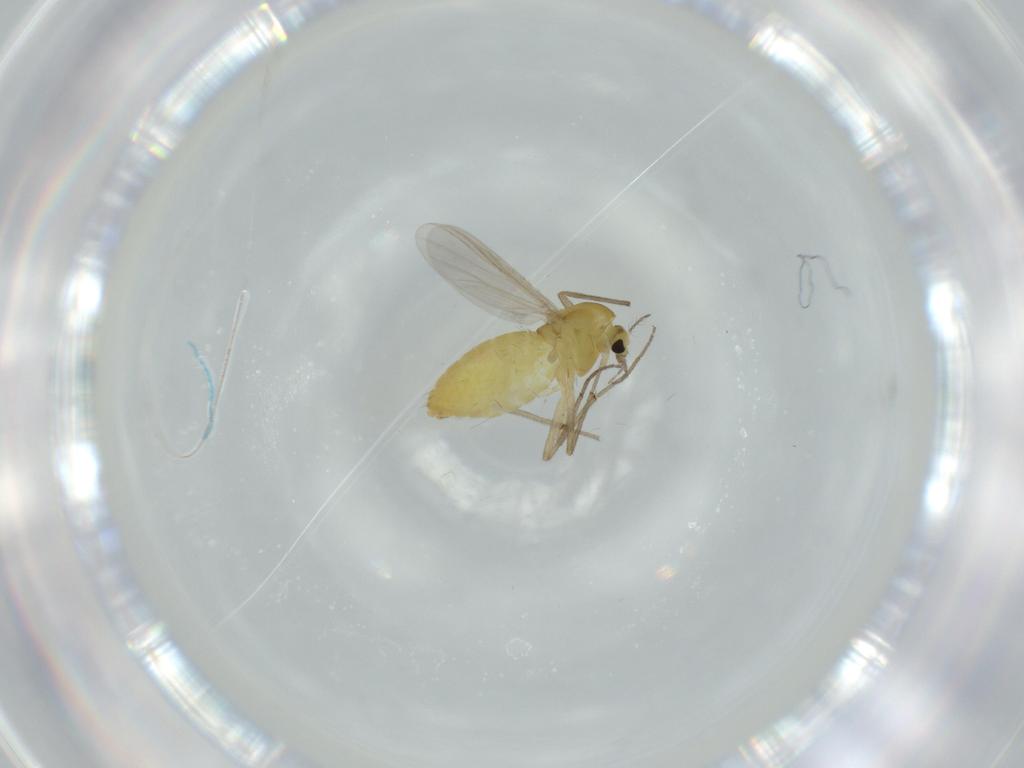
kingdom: Animalia
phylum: Arthropoda
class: Insecta
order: Diptera
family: Chironomidae
